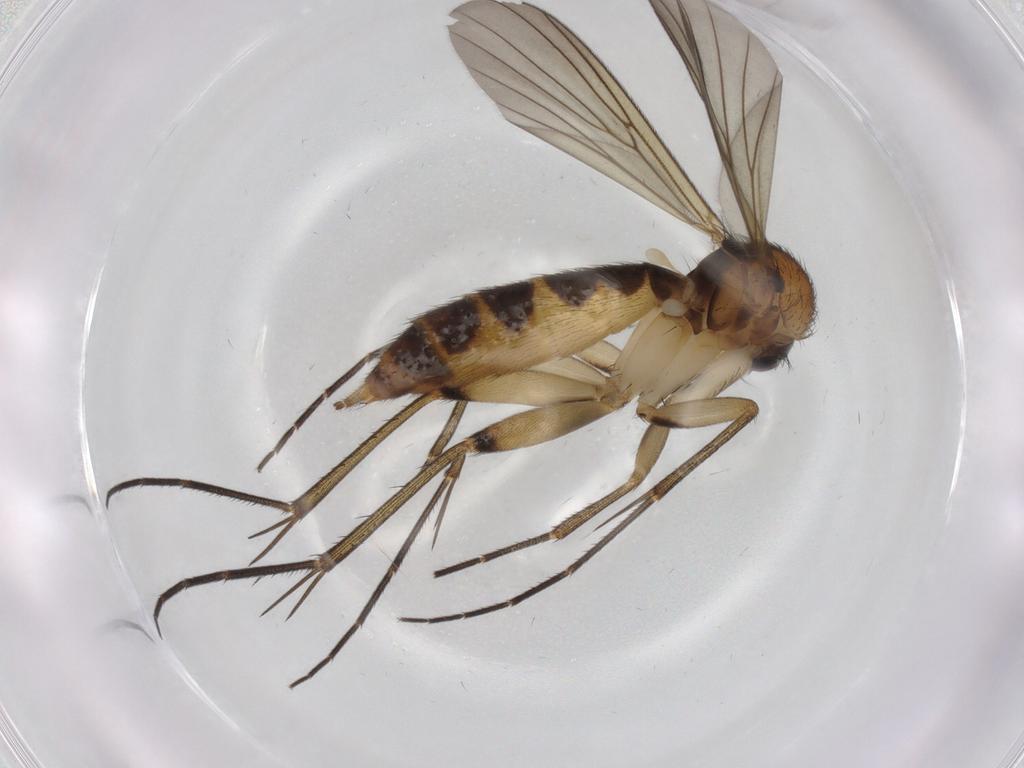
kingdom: Animalia
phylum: Arthropoda
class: Insecta
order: Diptera
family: Mycetophilidae
